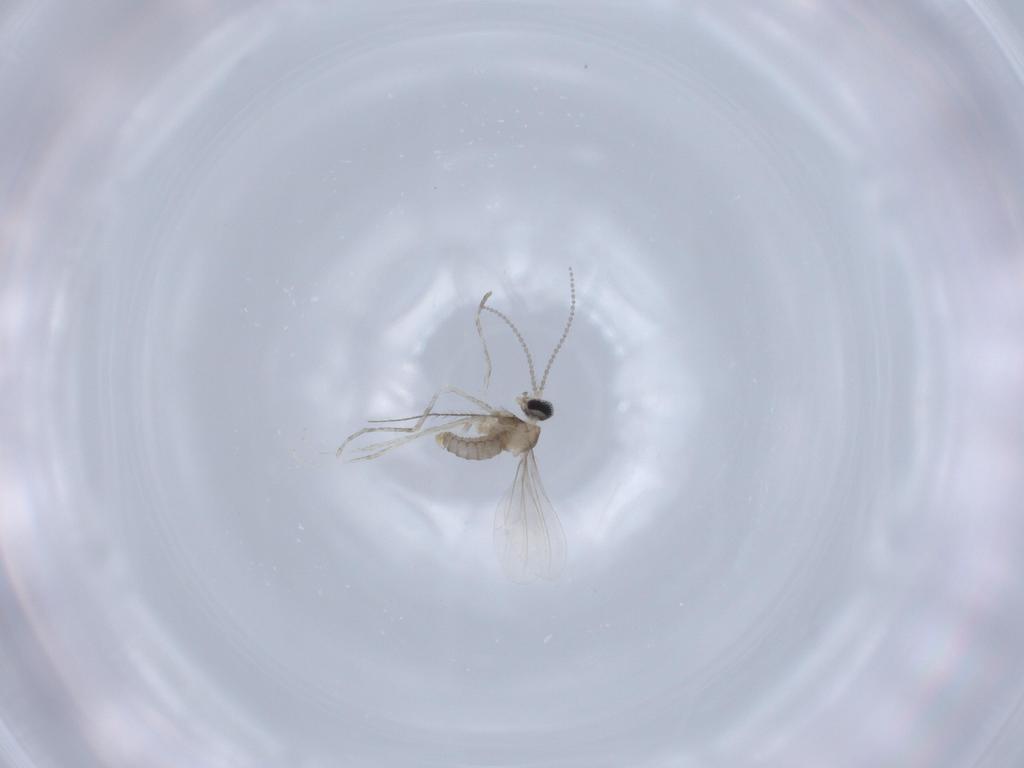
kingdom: Animalia
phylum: Arthropoda
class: Insecta
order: Diptera
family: Cecidomyiidae
